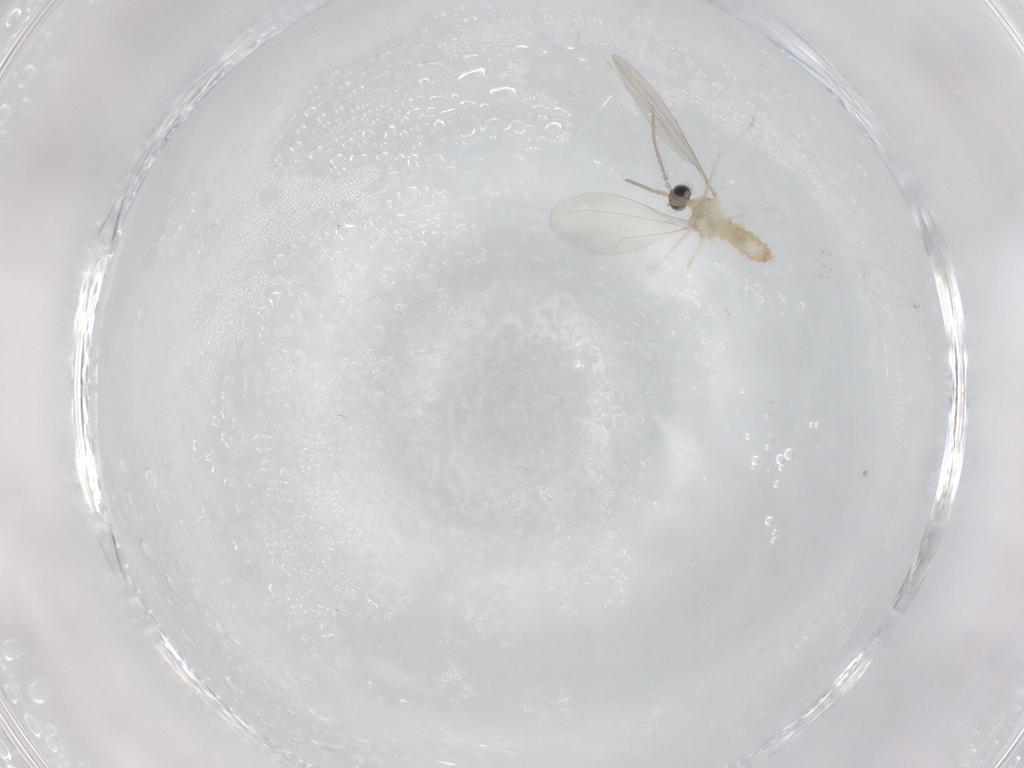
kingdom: Animalia
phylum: Arthropoda
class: Insecta
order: Diptera
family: Cecidomyiidae
